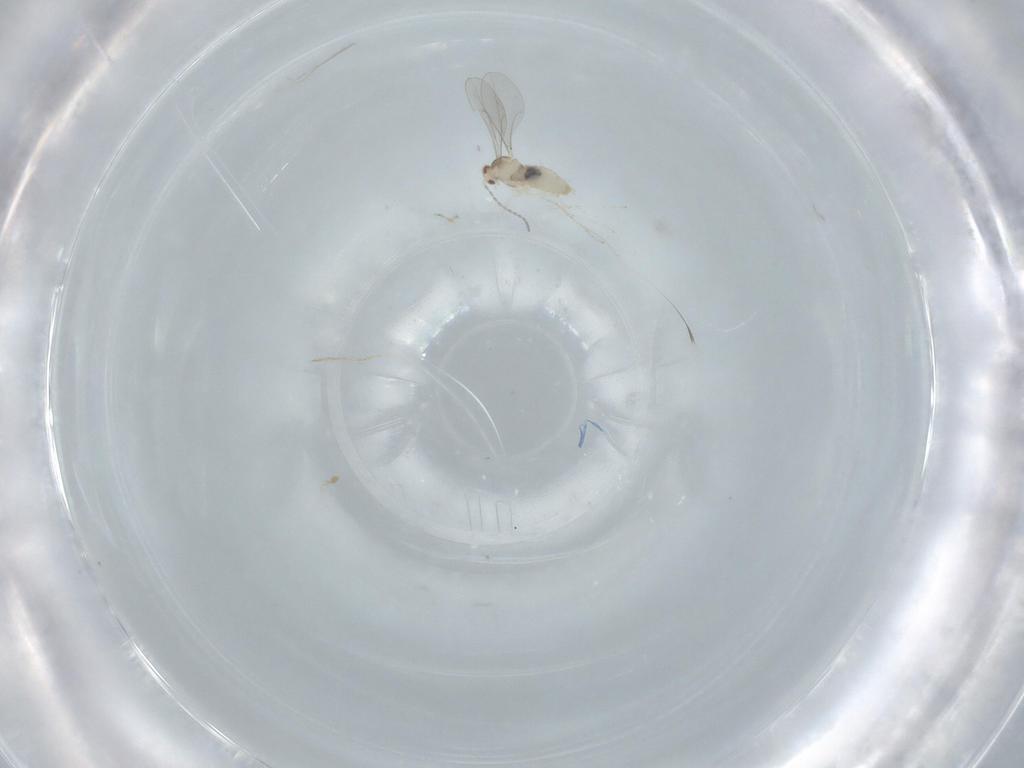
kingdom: Animalia
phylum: Arthropoda
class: Insecta
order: Diptera
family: Cecidomyiidae
